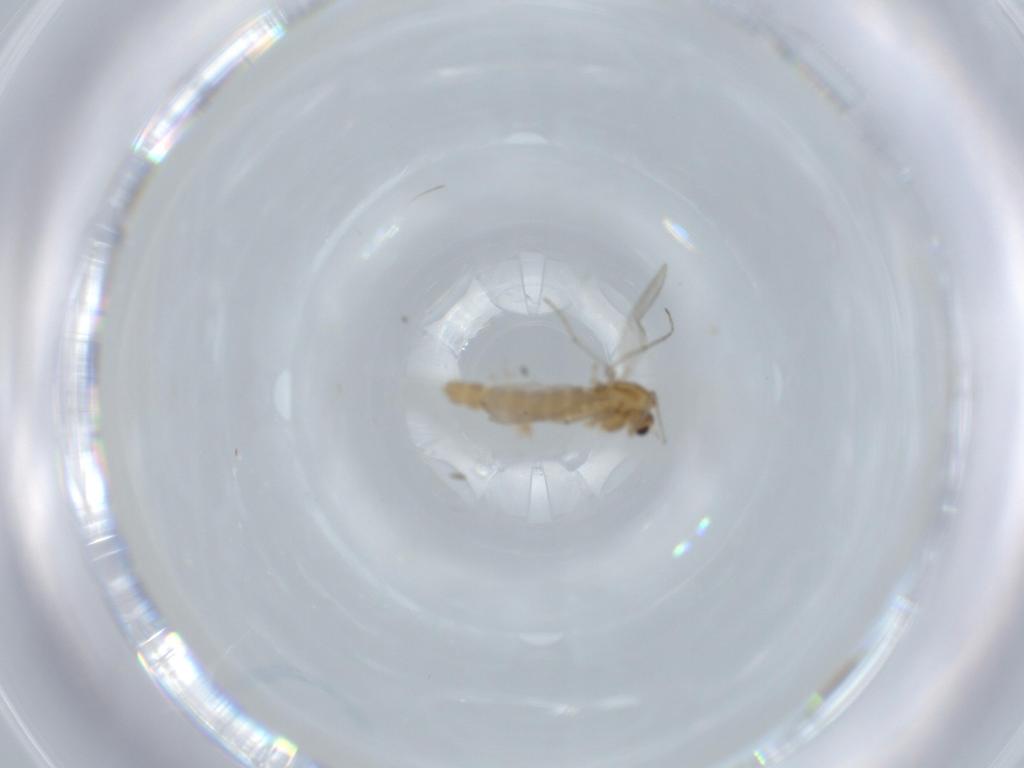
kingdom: Animalia
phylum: Arthropoda
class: Insecta
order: Diptera
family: Chironomidae
